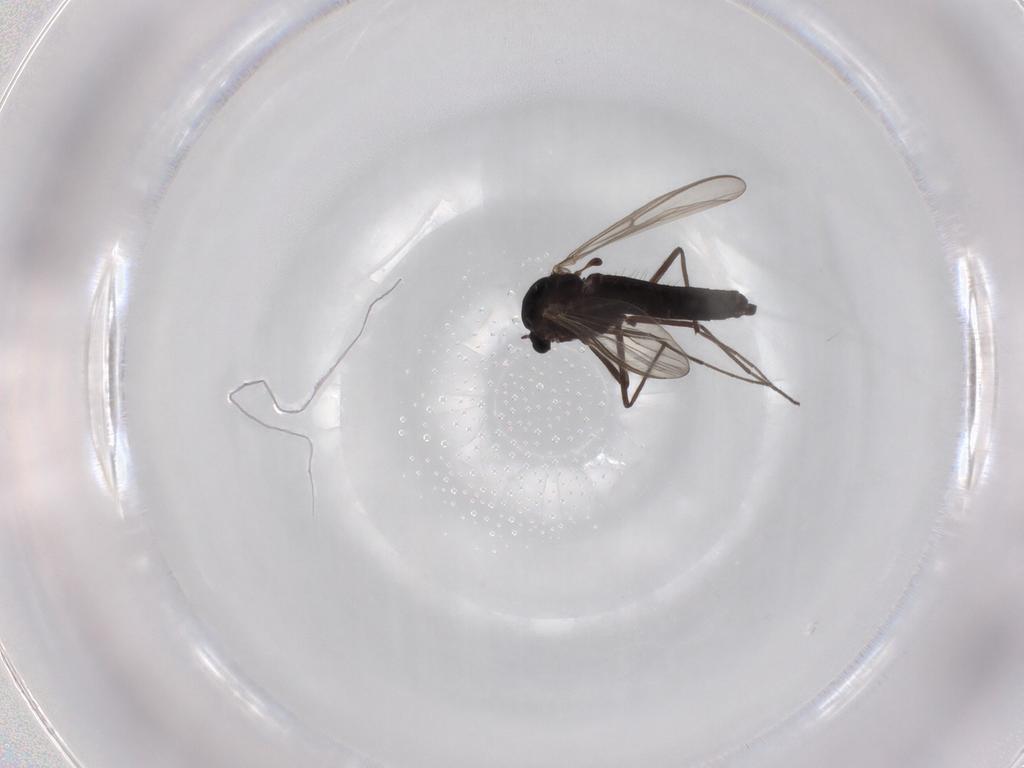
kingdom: Animalia
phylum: Arthropoda
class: Insecta
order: Diptera
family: Chironomidae
